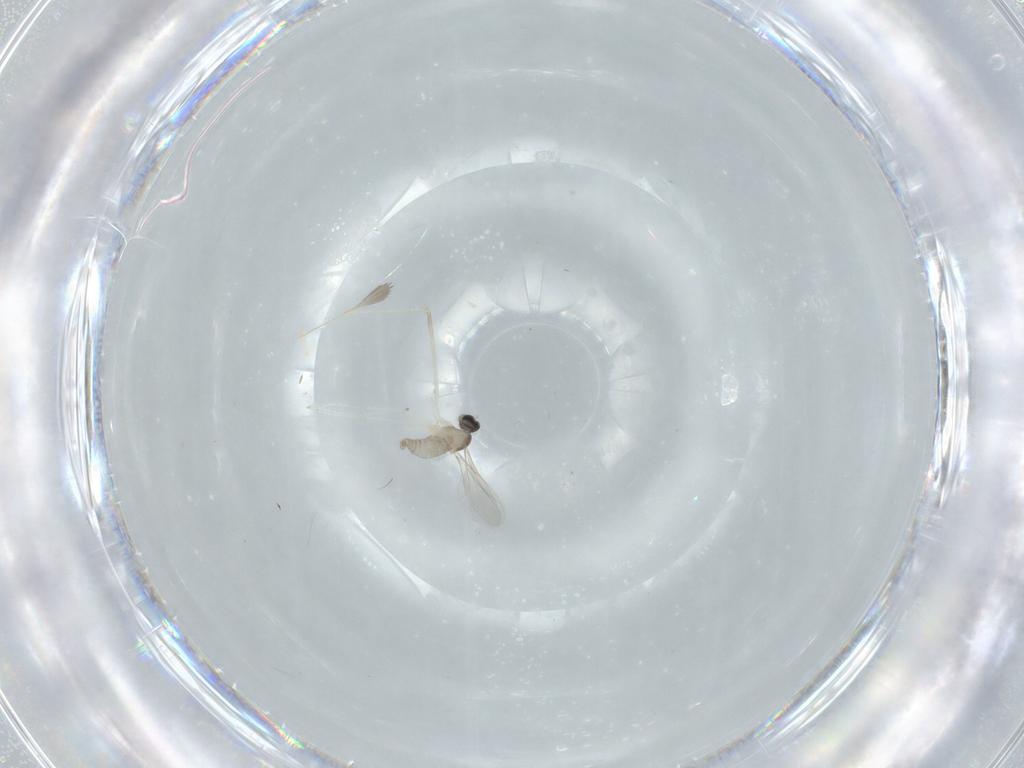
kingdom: Animalia
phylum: Arthropoda
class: Insecta
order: Diptera
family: Cecidomyiidae
